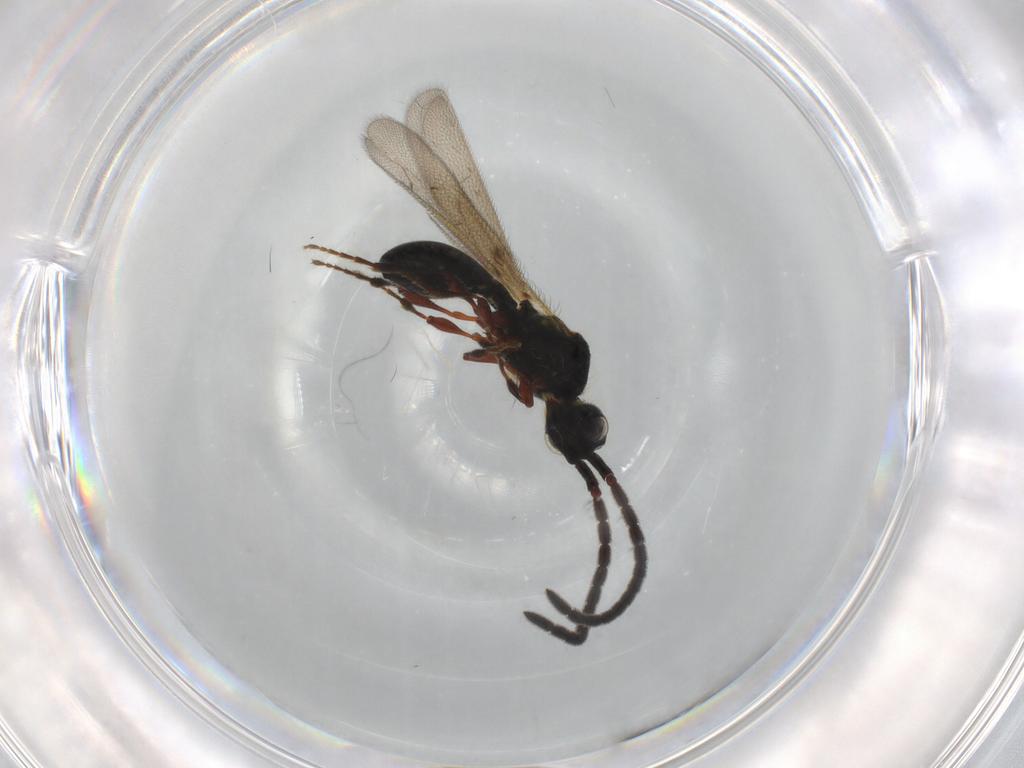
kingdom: Animalia
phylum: Arthropoda
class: Insecta
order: Hymenoptera
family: Diapriidae
